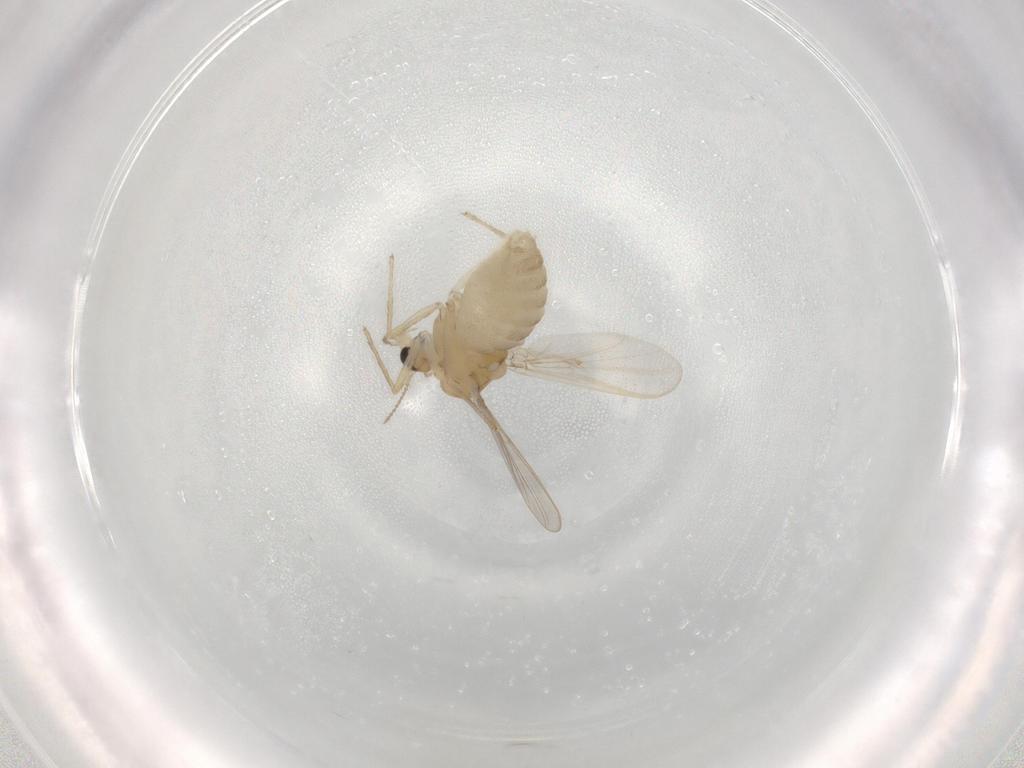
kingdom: Animalia
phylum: Arthropoda
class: Insecta
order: Diptera
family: Chironomidae
